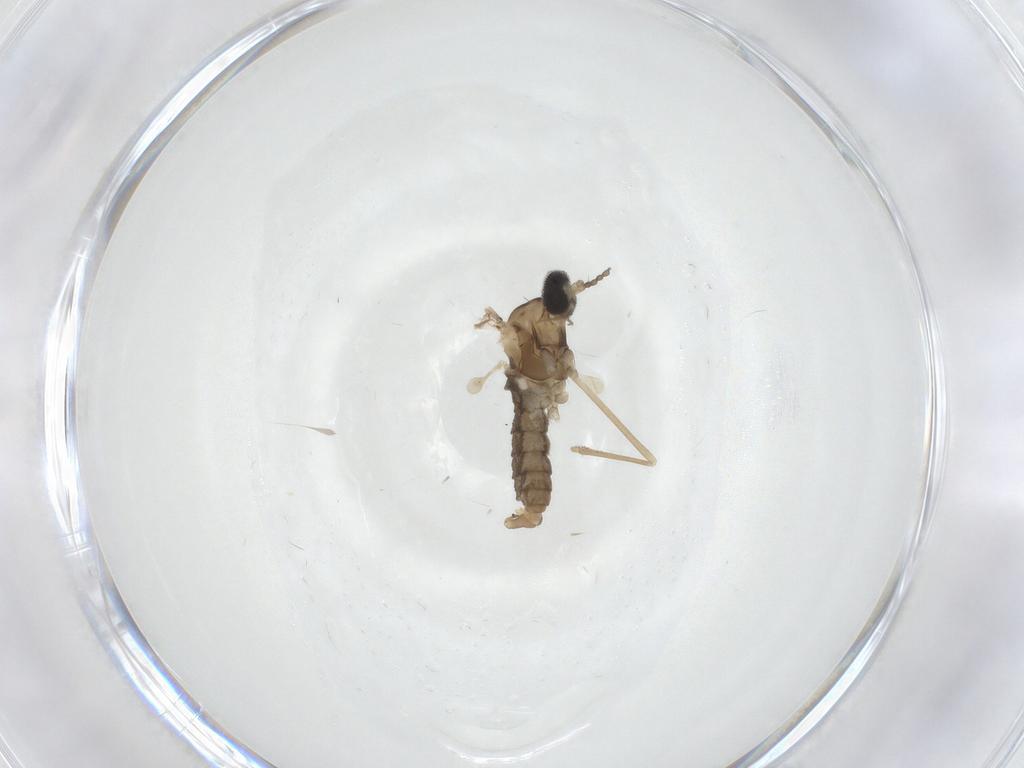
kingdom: Animalia
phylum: Arthropoda
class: Insecta
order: Diptera
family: Cecidomyiidae
